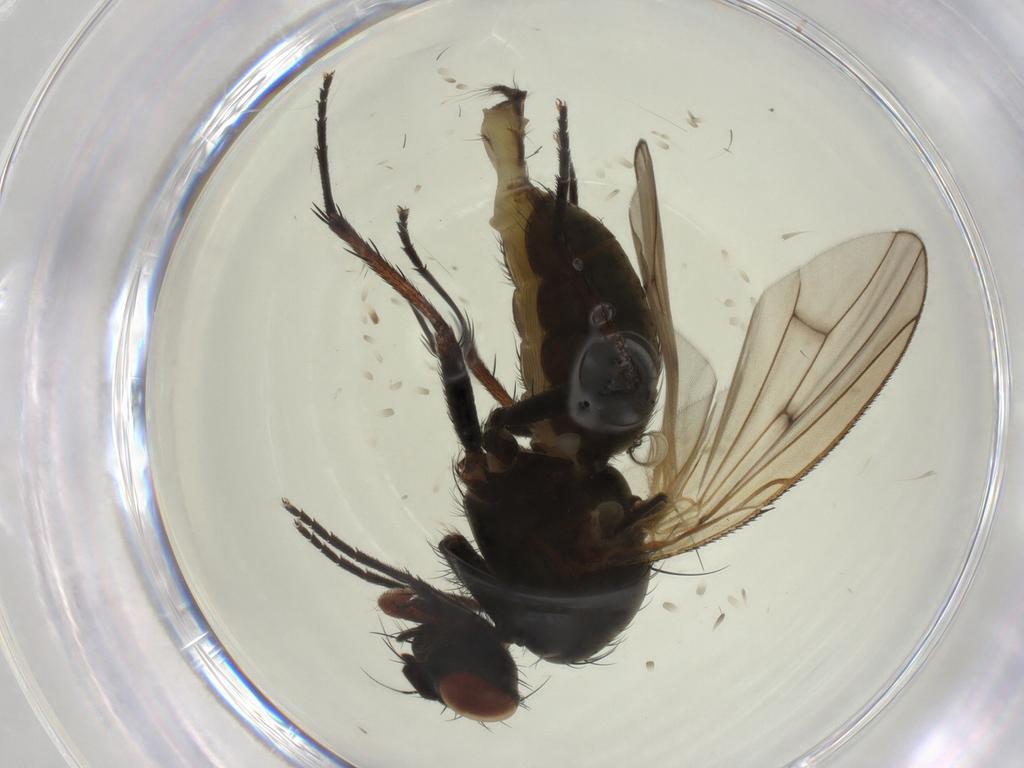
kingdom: Animalia
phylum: Arthropoda
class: Insecta
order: Diptera
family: Anthomyiidae
